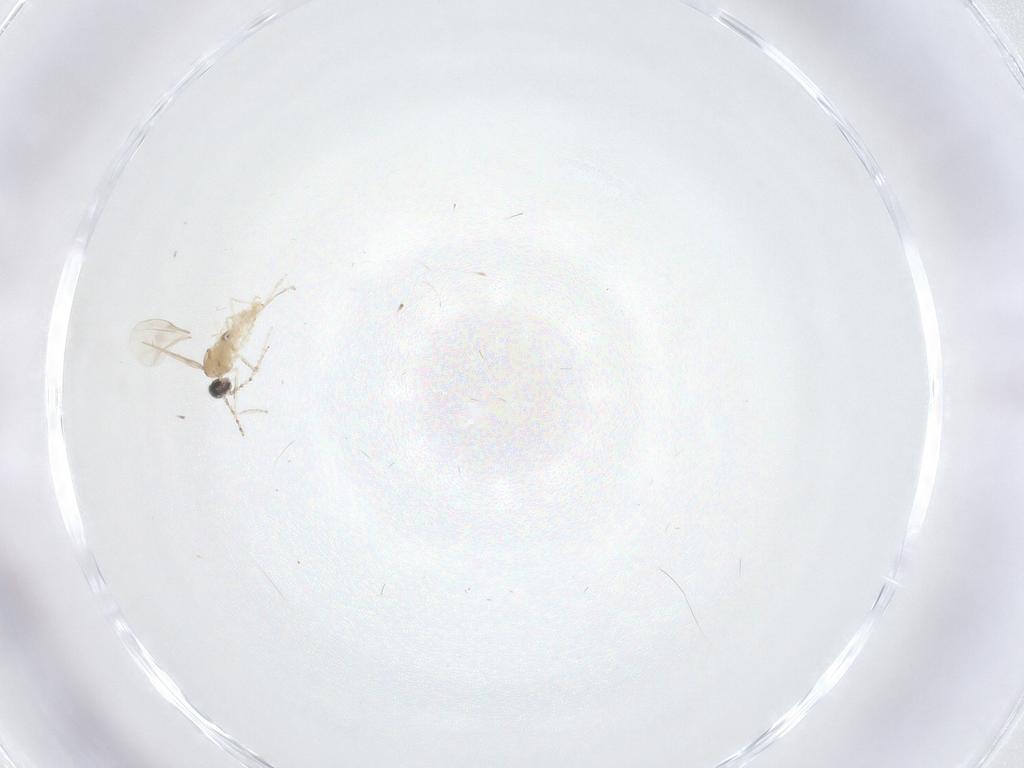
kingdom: Animalia
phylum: Arthropoda
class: Insecta
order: Diptera
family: Cecidomyiidae
